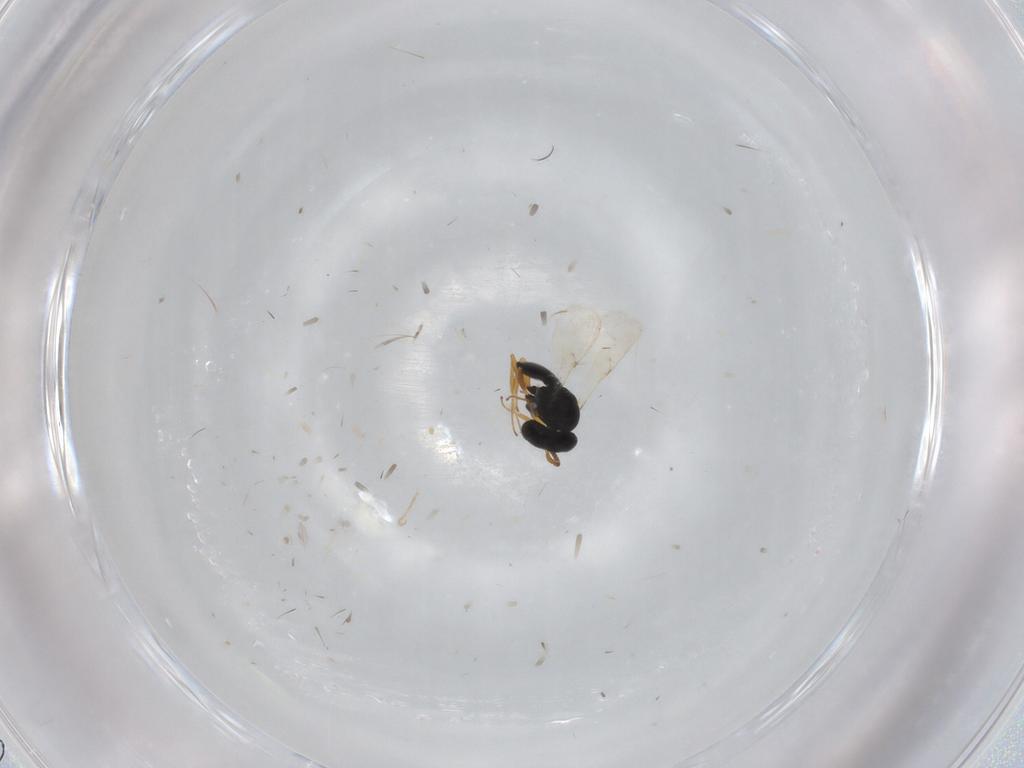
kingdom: Animalia
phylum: Arthropoda
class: Insecta
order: Hymenoptera
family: Scelionidae
